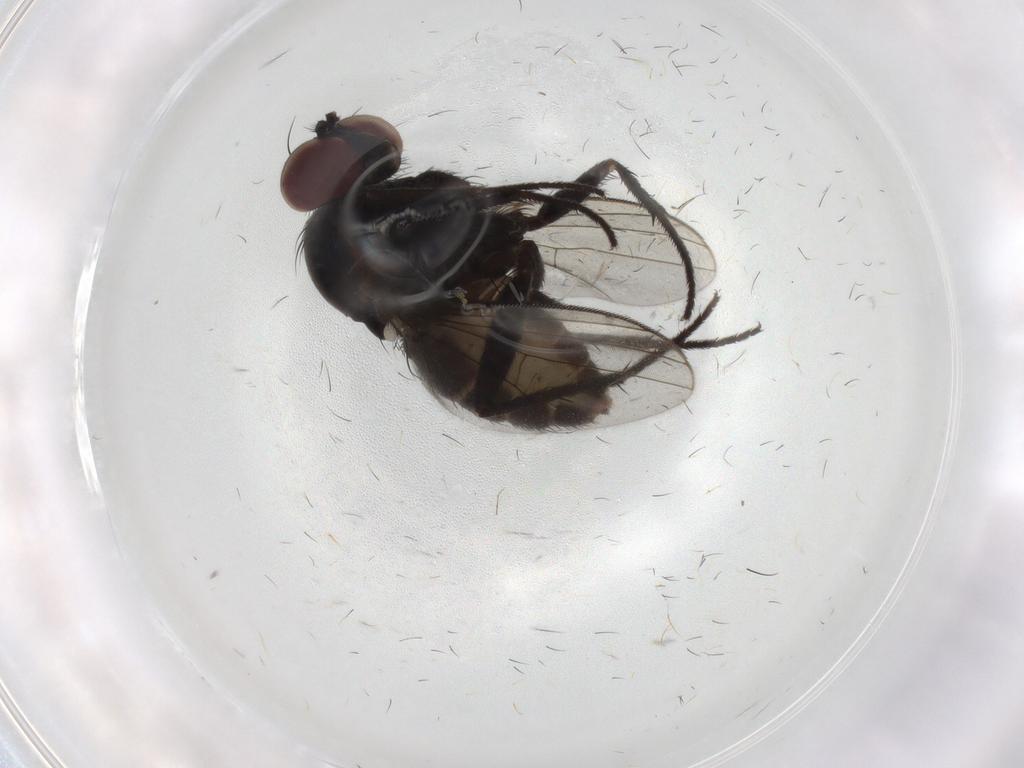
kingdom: Animalia
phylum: Arthropoda
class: Insecta
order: Diptera
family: Dolichopodidae
